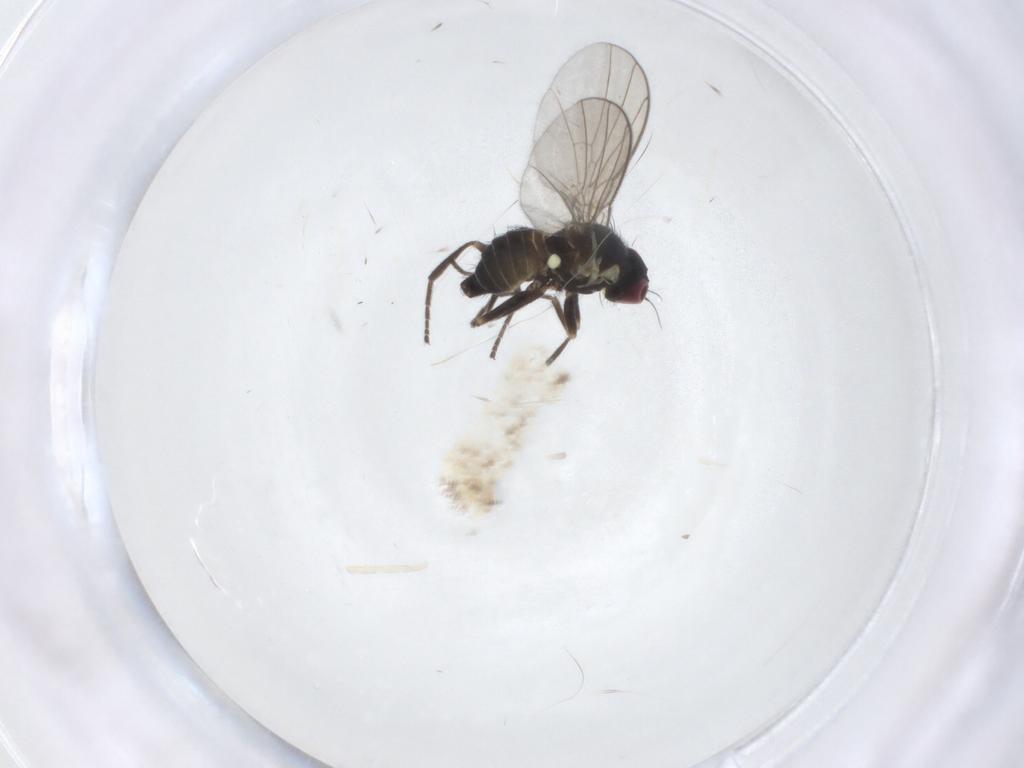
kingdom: Animalia
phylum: Arthropoda
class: Insecta
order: Diptera
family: Agromyzidae
